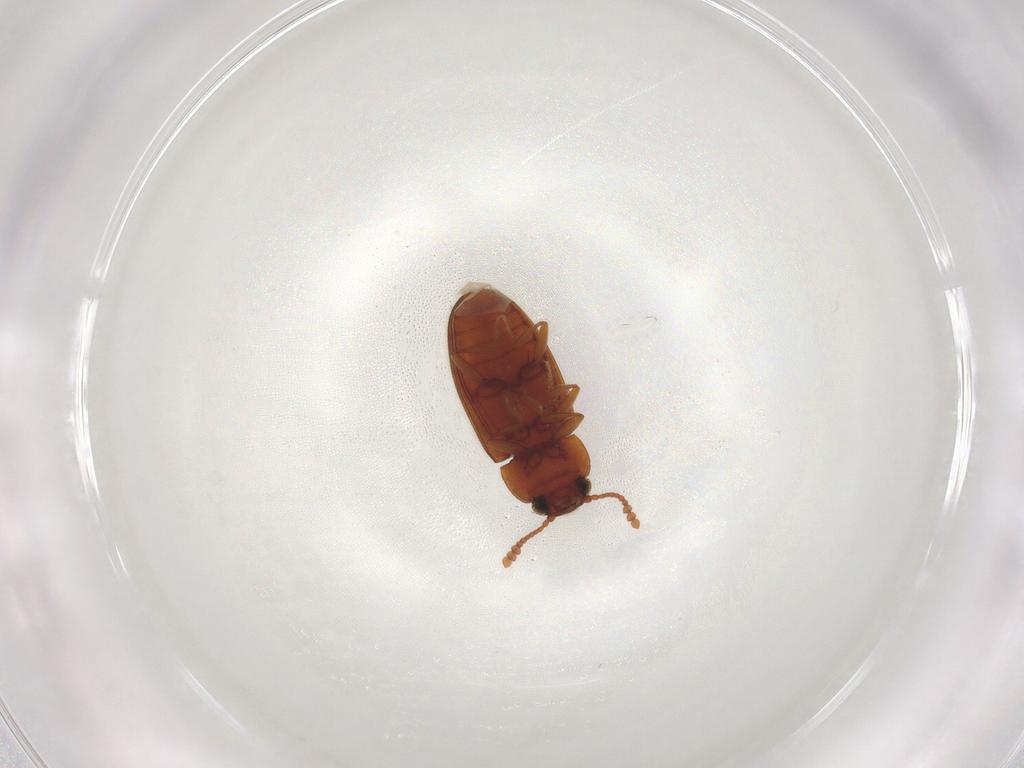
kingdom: Animalia
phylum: Arthropoda
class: Insecta
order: Coleoptera
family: Erotylidae
